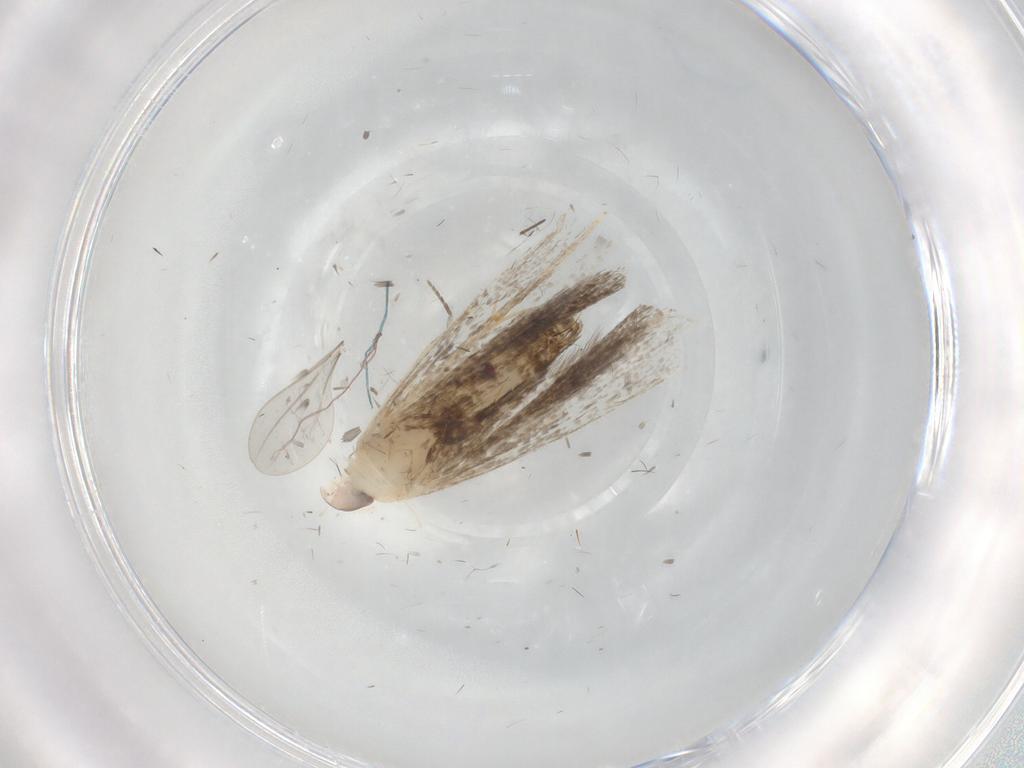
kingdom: Animalia
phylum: Arthropoda
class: Insecta
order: Lepidoptera
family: Gelechiidae
